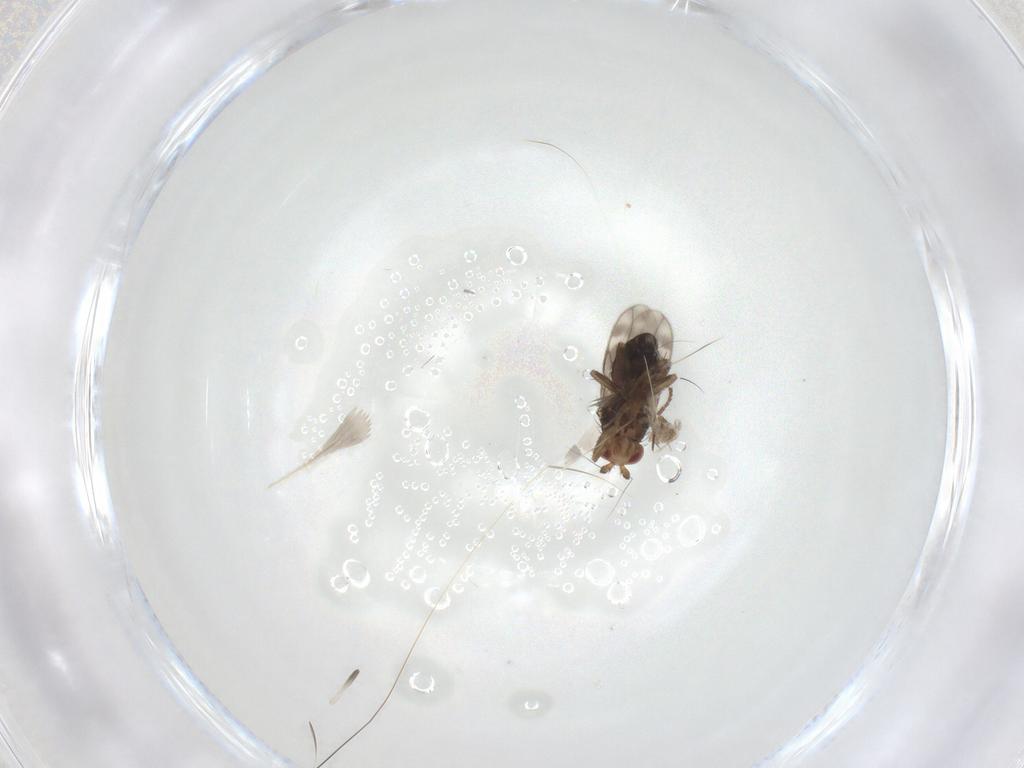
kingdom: Animalia
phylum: Arthropoda
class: Insecta
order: Diptera
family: Sphaeroceridae
